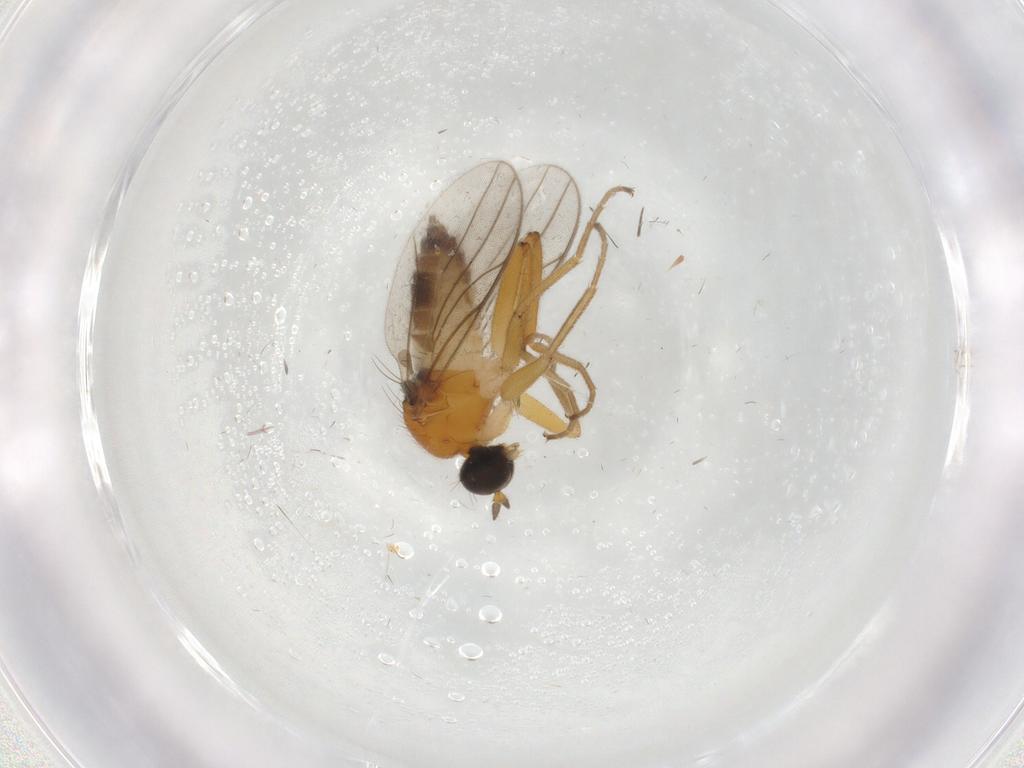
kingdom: Animalia
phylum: Arthropoda
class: Insecta
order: Diptera
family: Hybotidae
